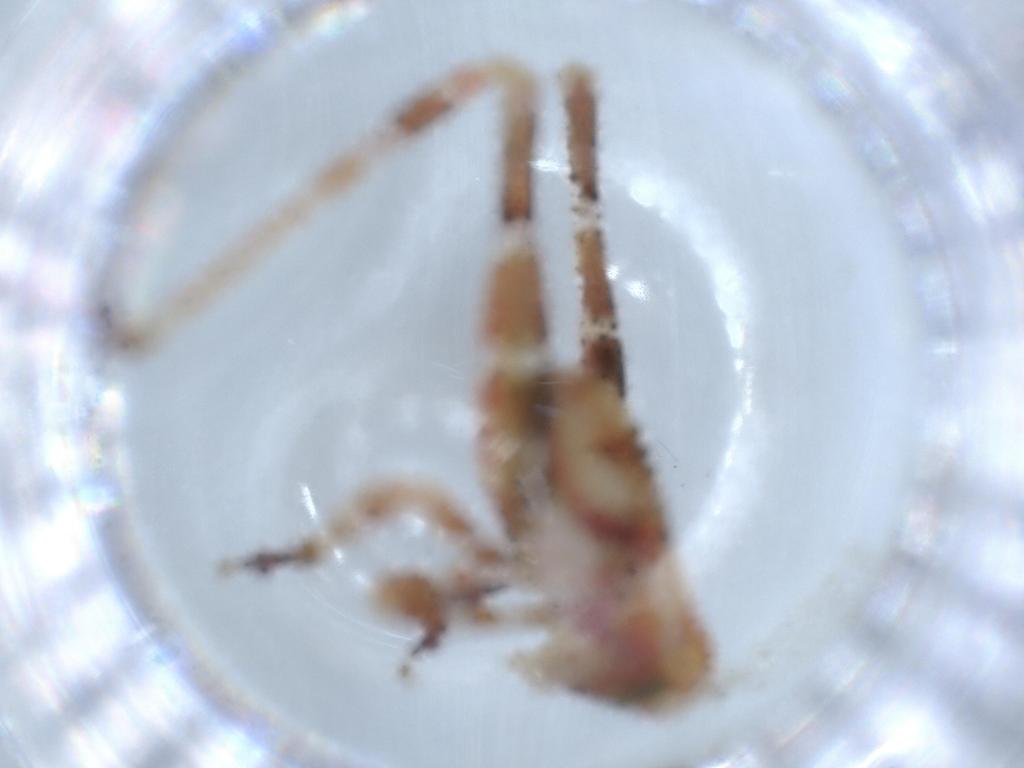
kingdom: Animalia
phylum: Arthropoda
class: Insecta
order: Orthoptera
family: Tettigoniidae
